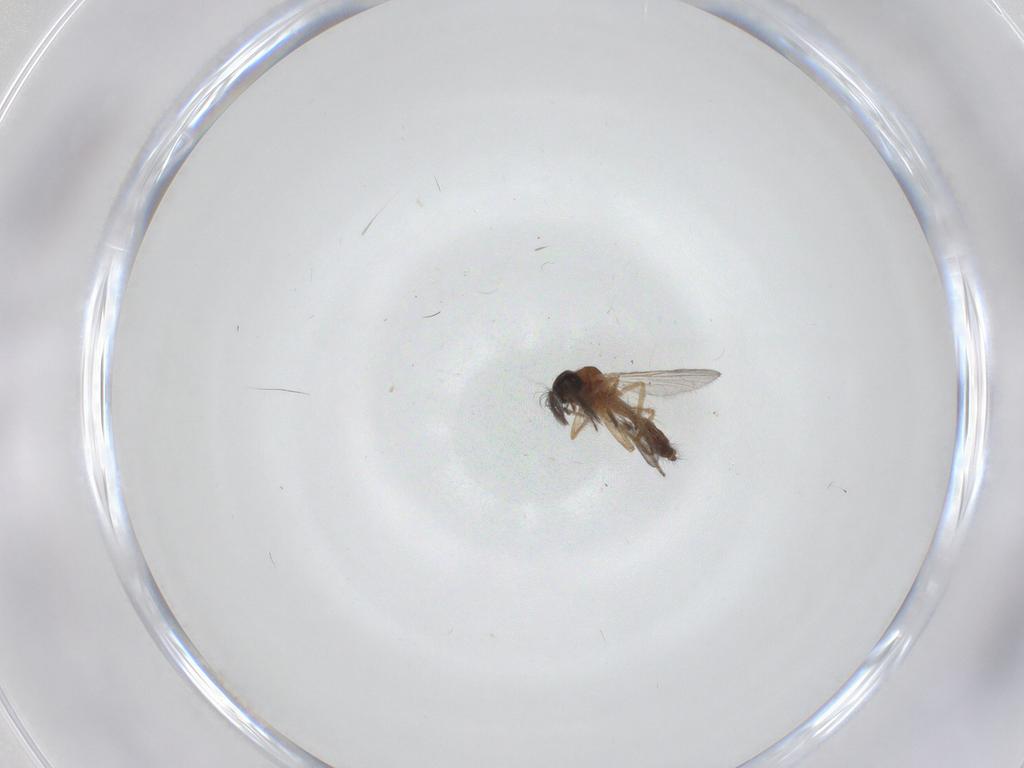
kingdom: Animalia
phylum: Arthropoda
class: Insecta
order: Diptera
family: Ceratopogonidae
